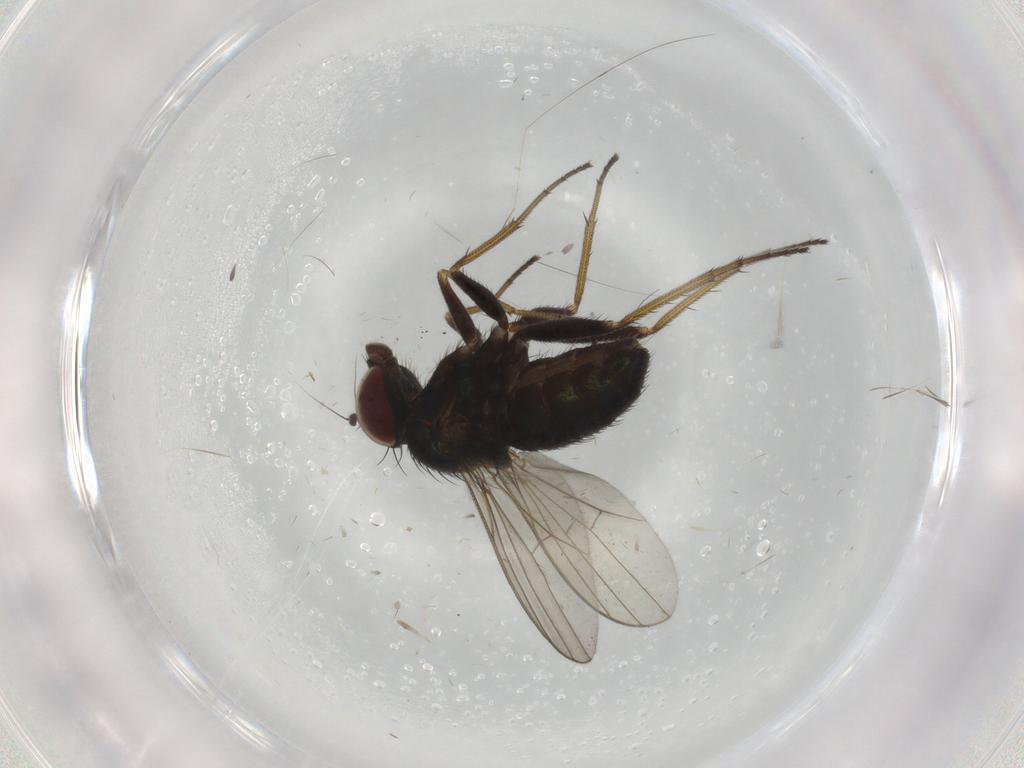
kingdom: Animalia
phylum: Arthropoda
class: Insecta
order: Diptera
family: Dolichopodidae
